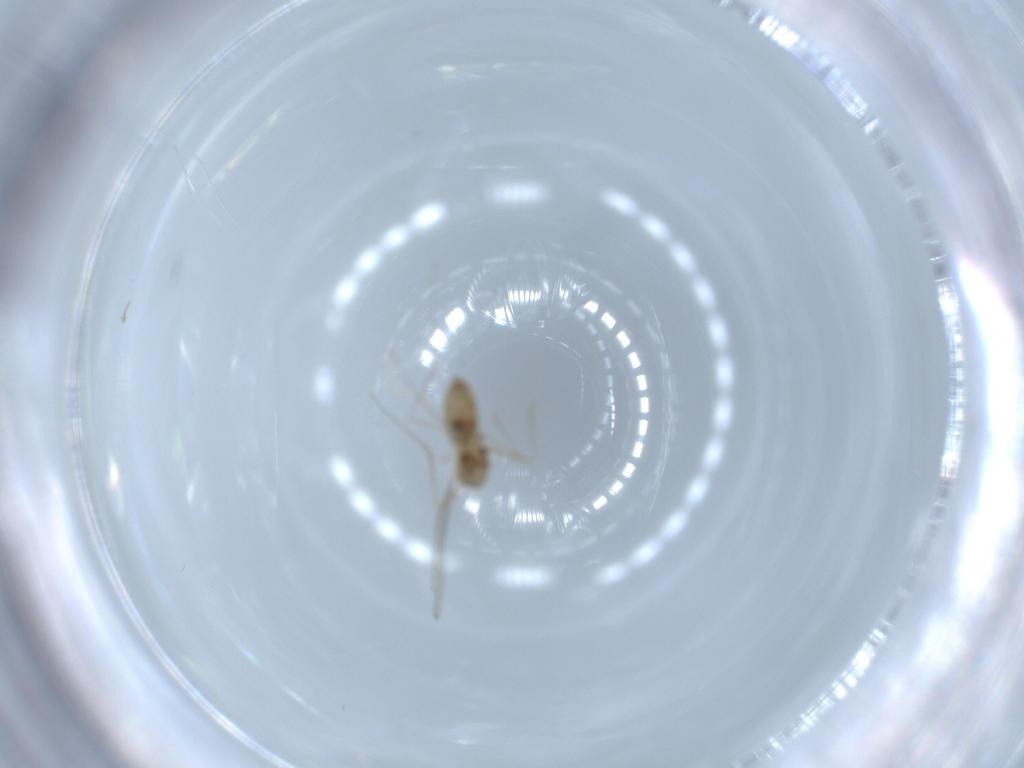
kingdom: Animalia
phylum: Arthropoda
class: Insecta
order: Diptera
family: Cecidomyiidae
